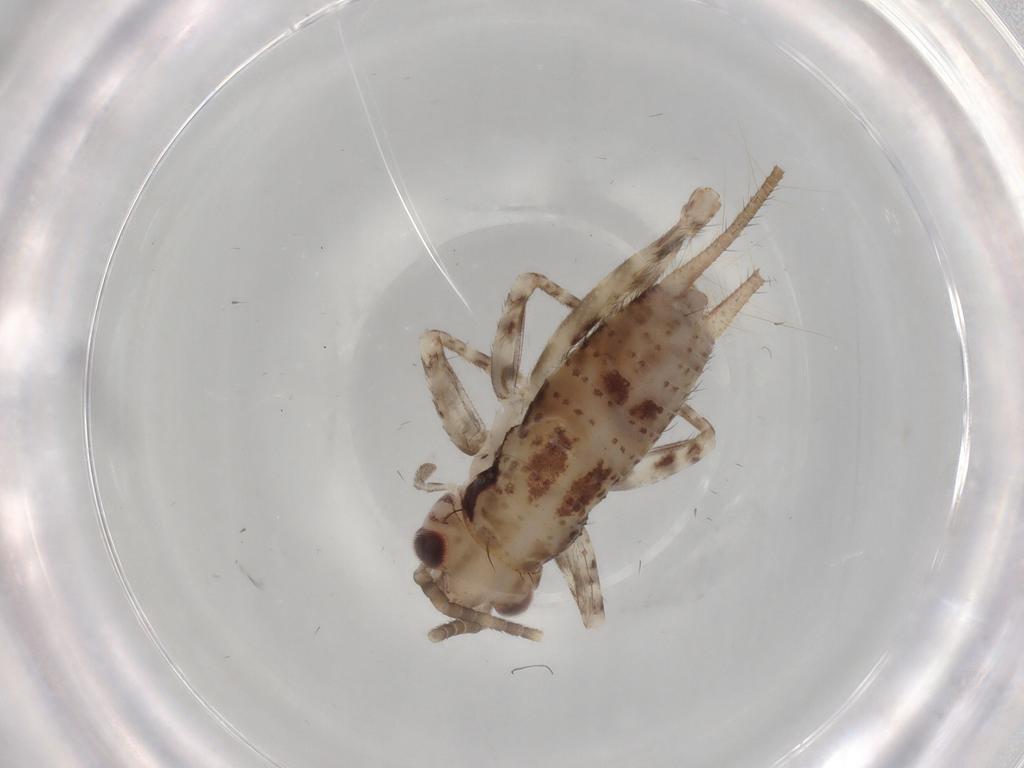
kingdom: Animalia
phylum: Arthropoda
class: Insecta
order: Orthoptera
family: Gryllidae
